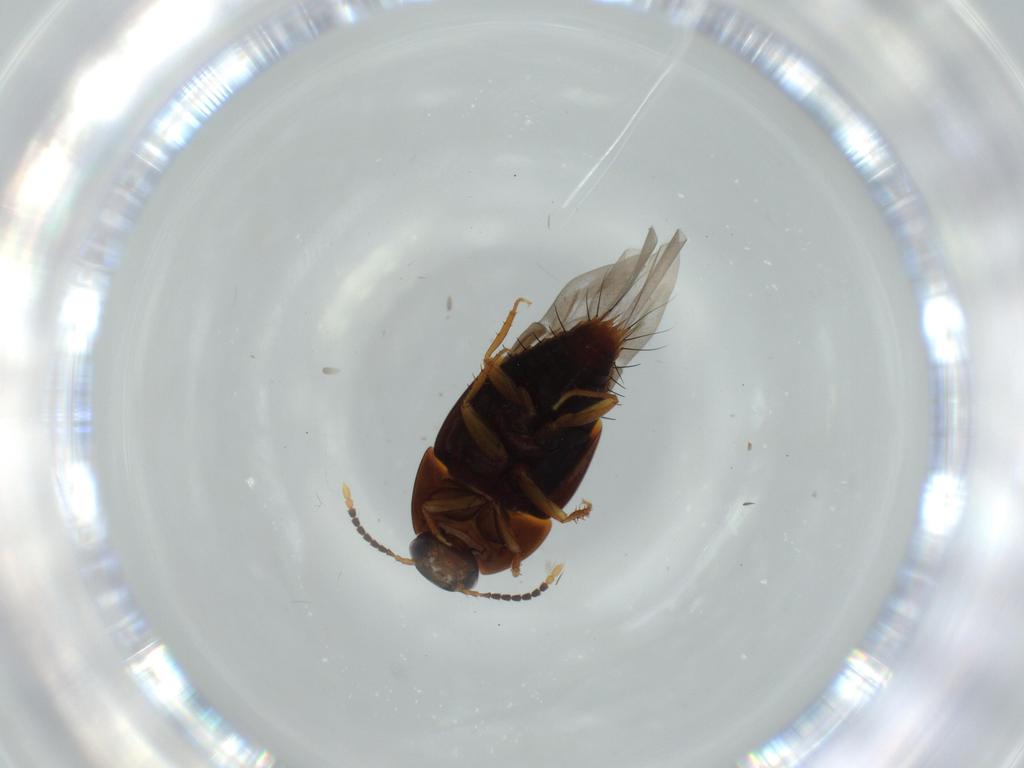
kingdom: Animalia
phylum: Arthropoda
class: Insecta
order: Coleoptera
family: Staphylinidae
